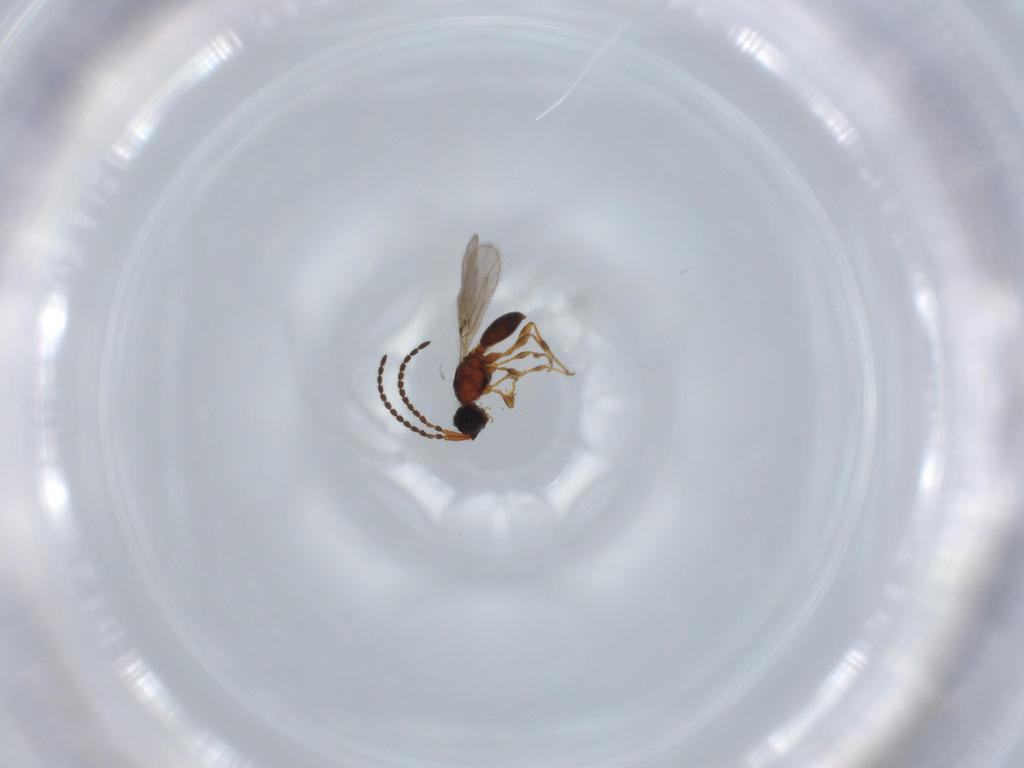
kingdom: Animalia
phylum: Arthropoda
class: Insecta
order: Hymenoptera
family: Diapriidae
